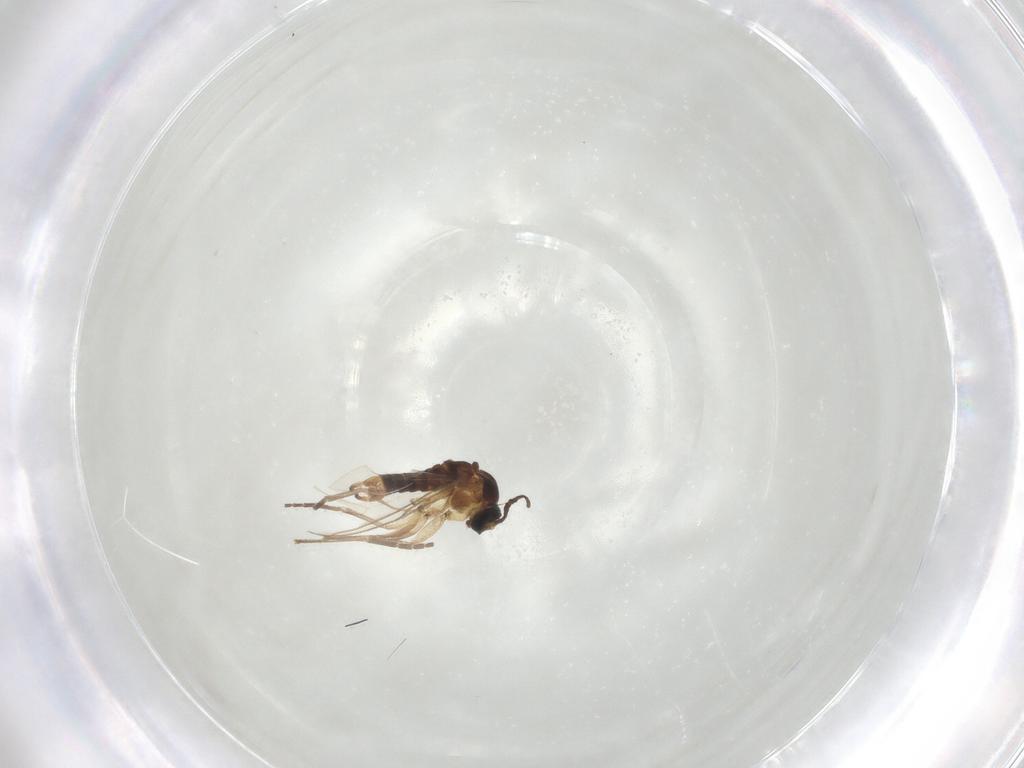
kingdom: Animalia
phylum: Arthropoda
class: Insecta
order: Diptera
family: Sciaridae
